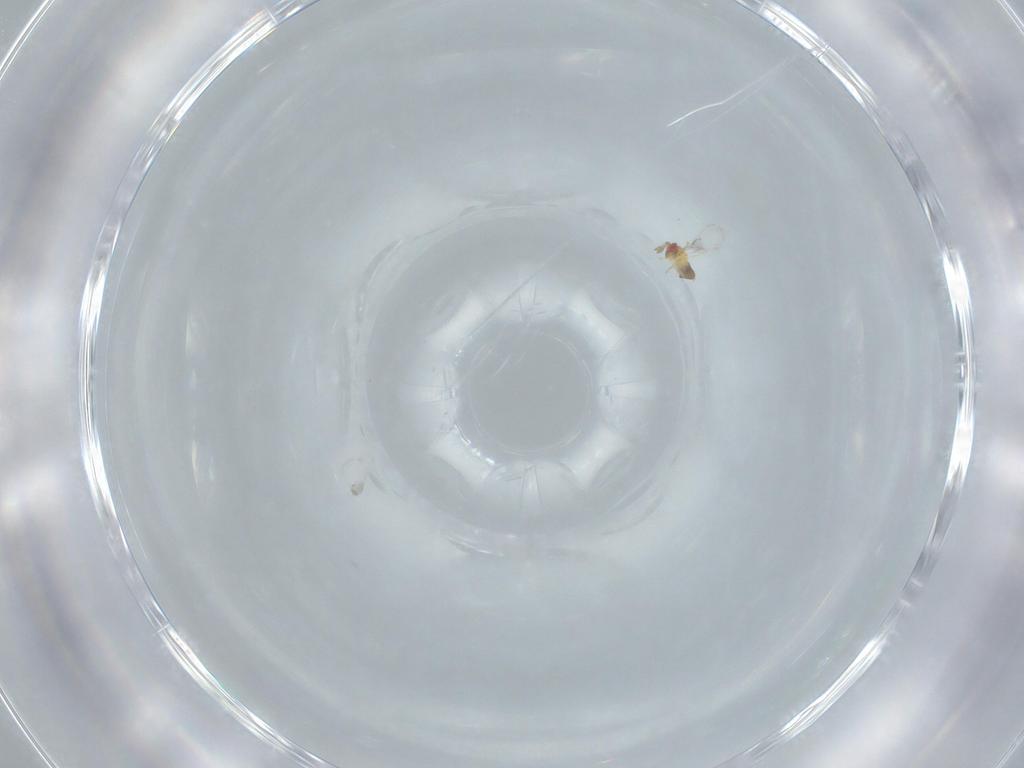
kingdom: Animalia
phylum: Arthropoda
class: Insecta
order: Hymenoptera
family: Trichogrammatidae
